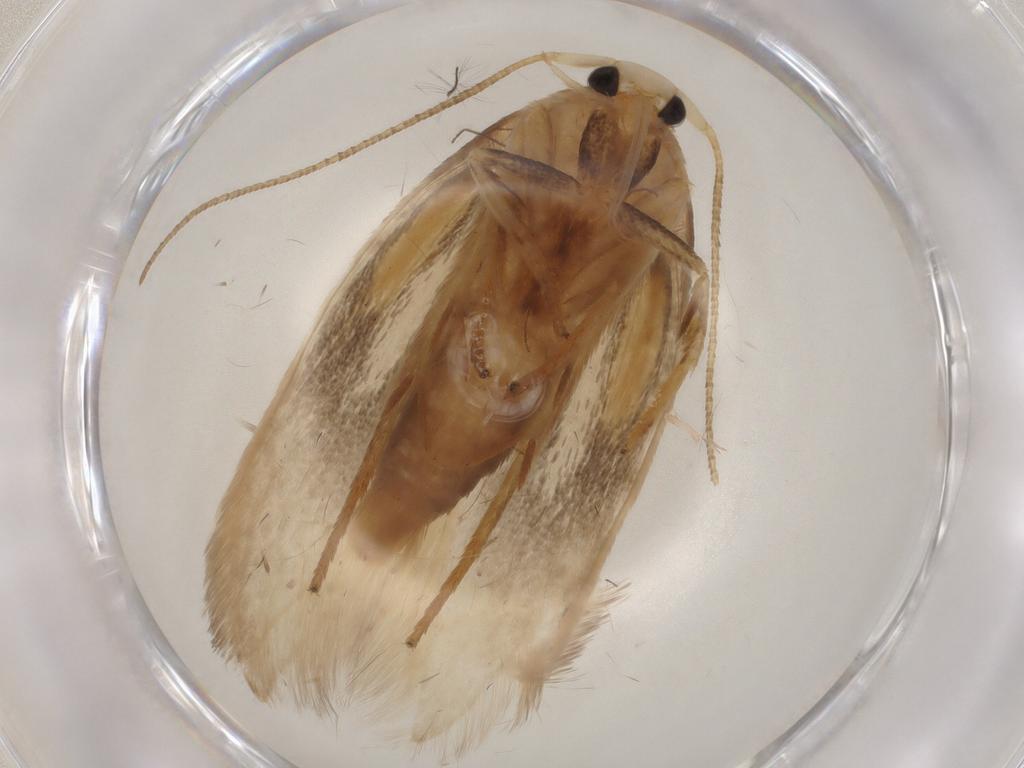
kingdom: Animalia
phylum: Arthropoda
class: Insecta
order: Lepidoptera
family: Geometridae
